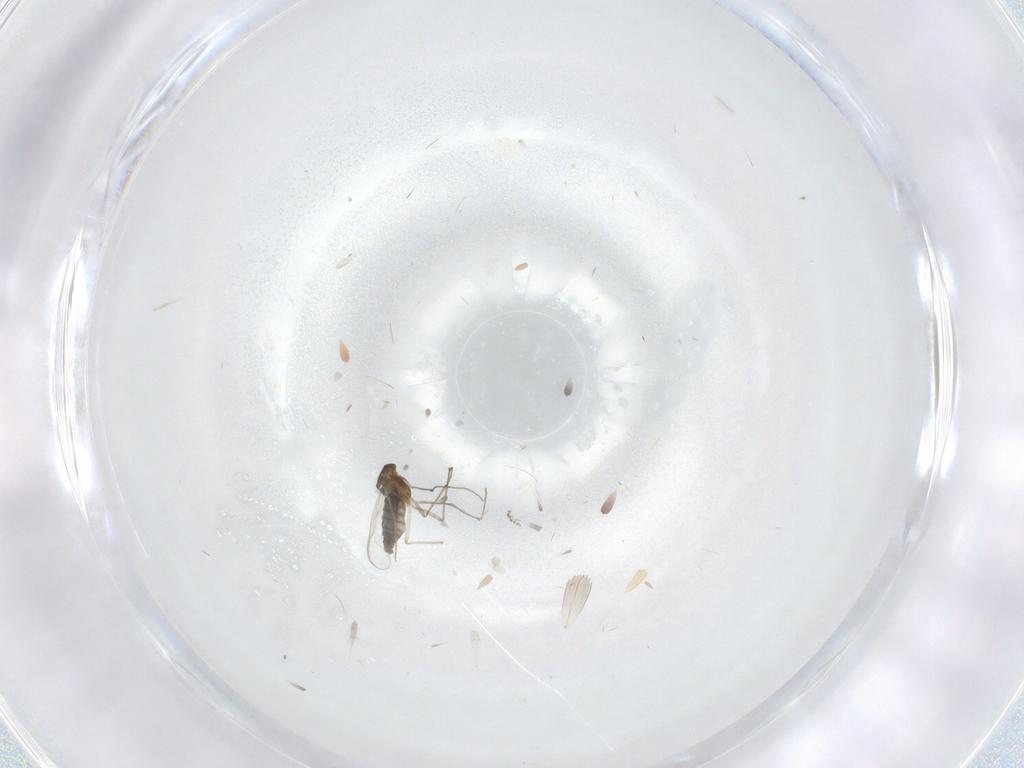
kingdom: Animalia
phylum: Arthropoda
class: Insecta
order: Diptera
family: Chironomidae
